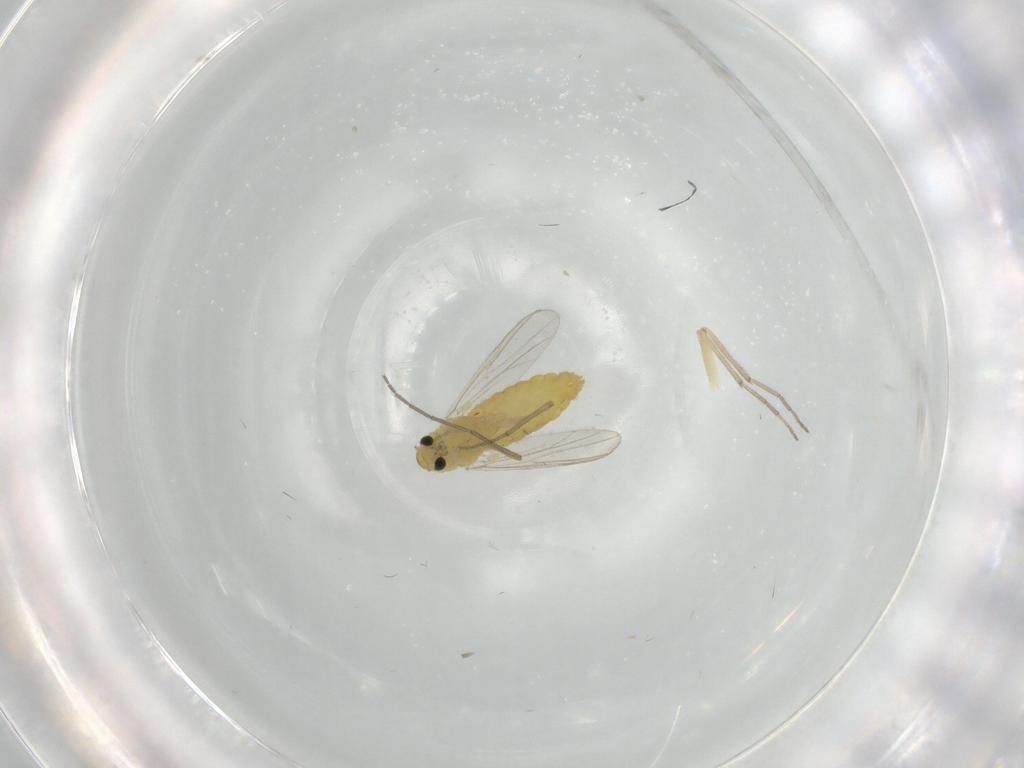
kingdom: Animalia
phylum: Arthropoda
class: Insecta
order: Diptera
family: Chironomidae
